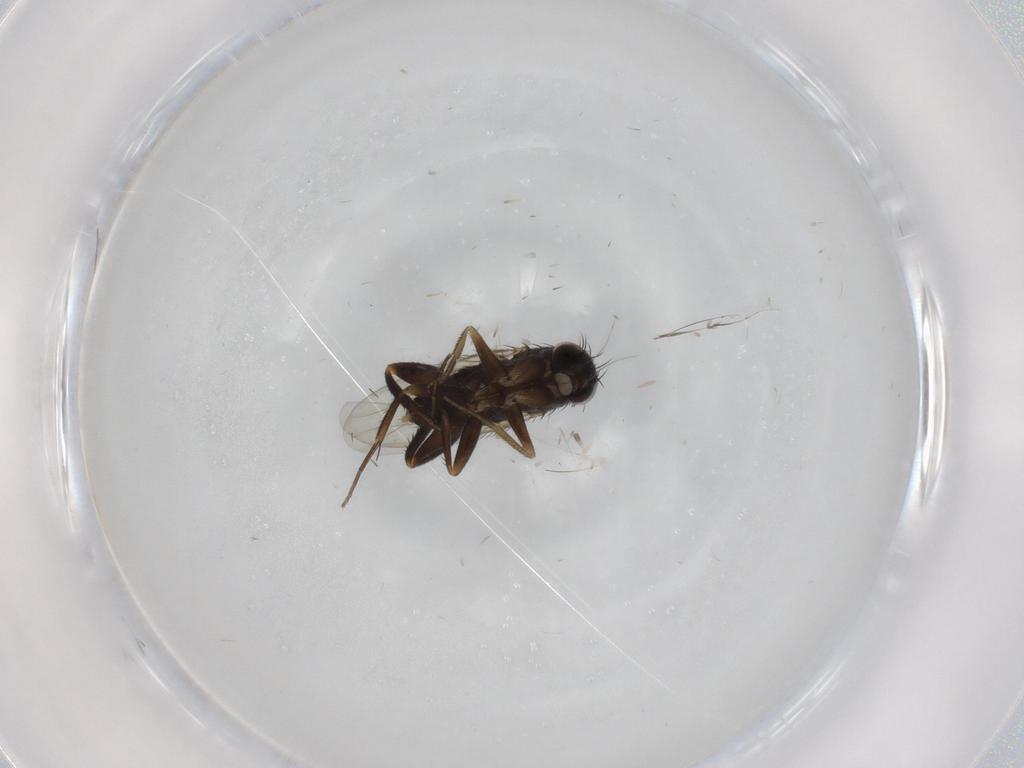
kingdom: Animalia
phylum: Arthropoda
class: Insecta
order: Diptera
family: Phoridae
